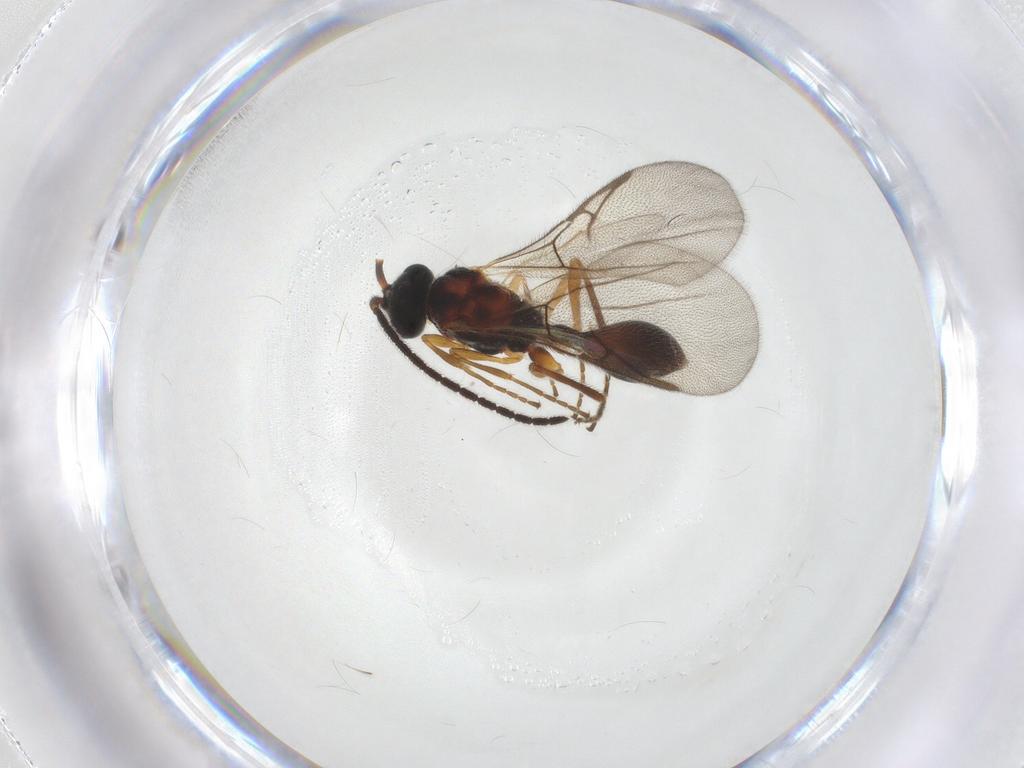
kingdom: Animalia
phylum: Arthropoda
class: Insecta
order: Hymenoptera
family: Diapriidae
